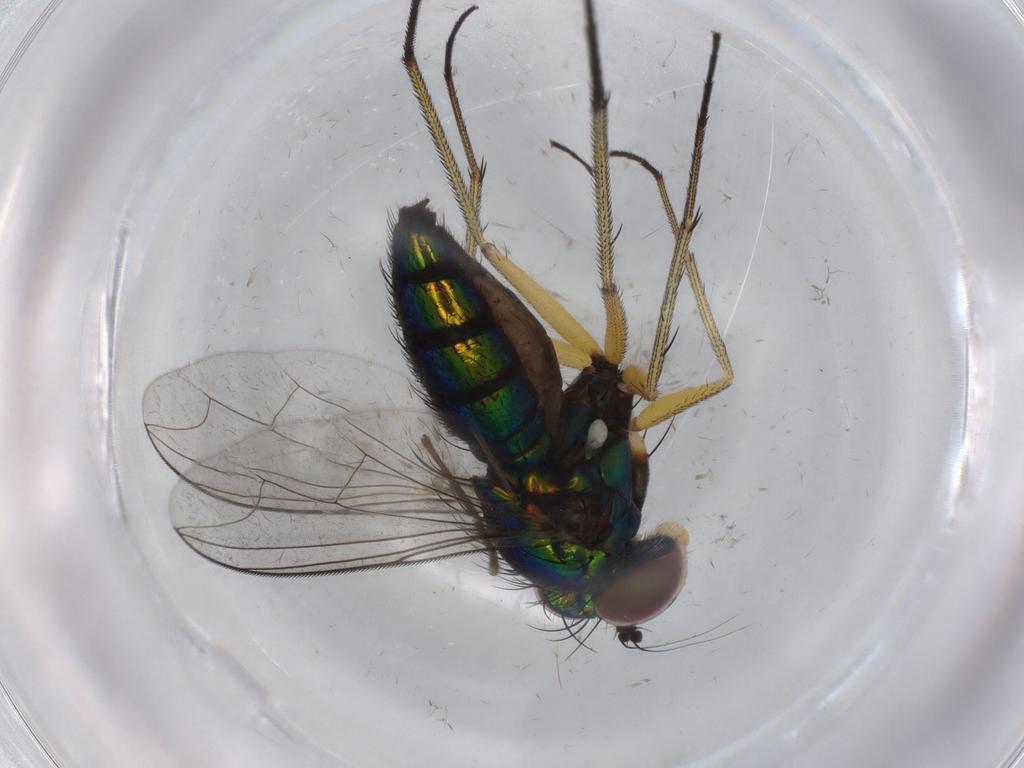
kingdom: Animalia
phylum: Arthropoda
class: Insecta
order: Diptera
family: Dolichopodidae
